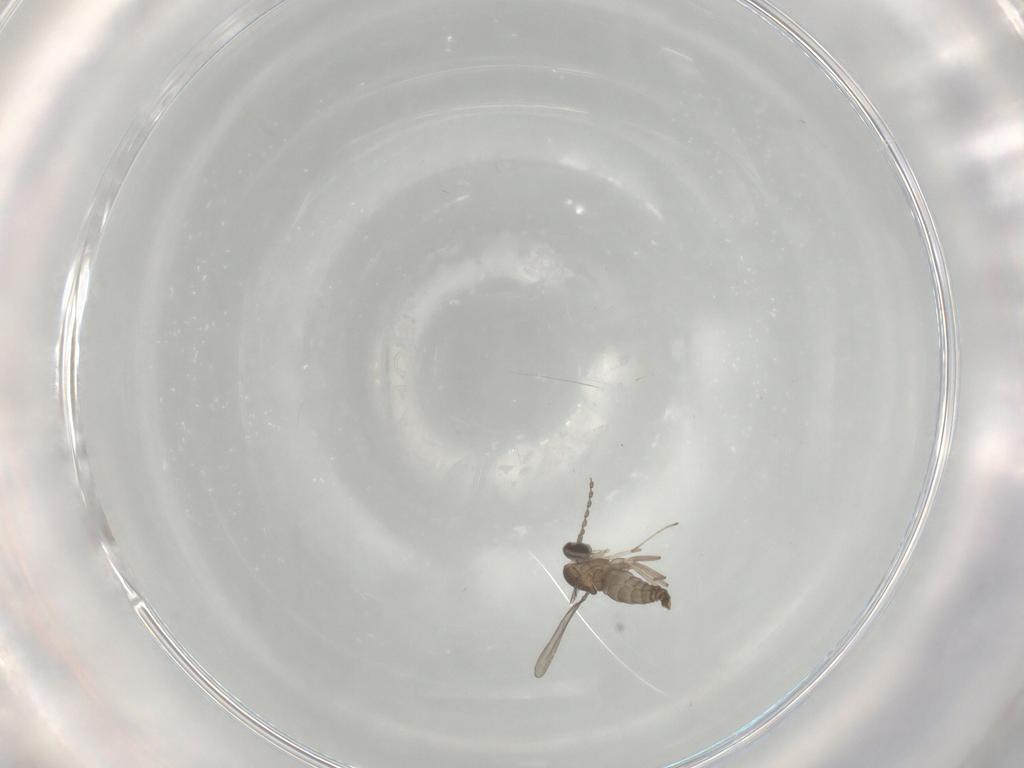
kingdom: Animalia
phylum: Arthropoda
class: Insecta
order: Diptera
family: Cecidomyiidae
